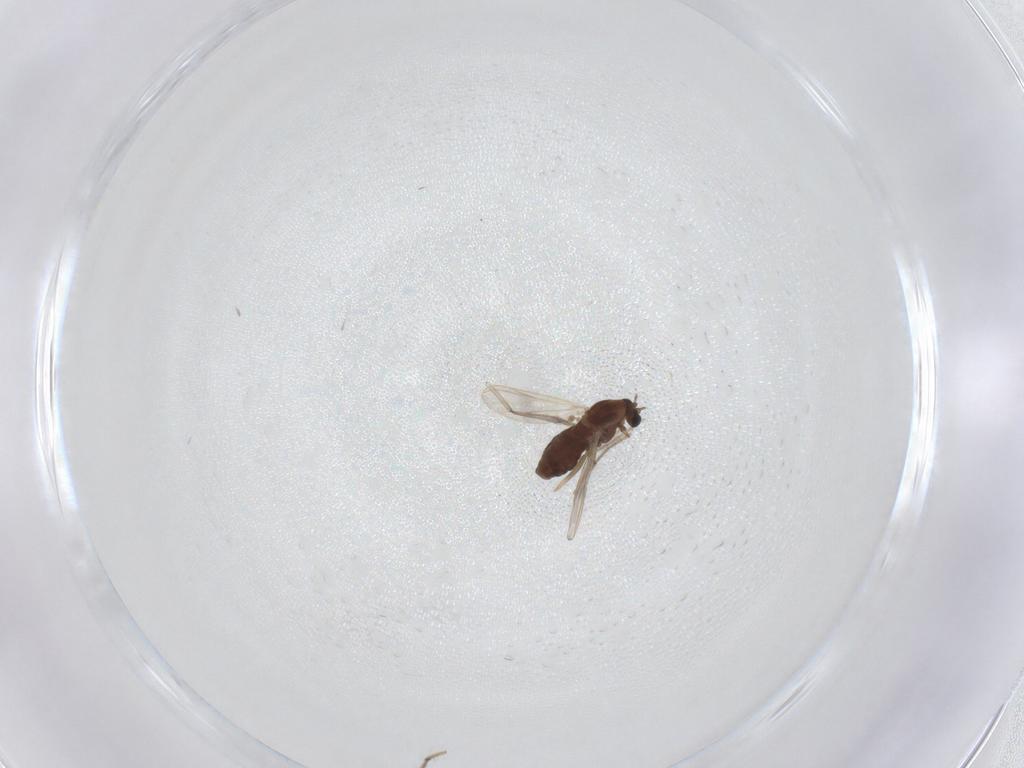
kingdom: Animalia
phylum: Arthropoda
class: Insecta
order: Diptera
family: Chironomidae
